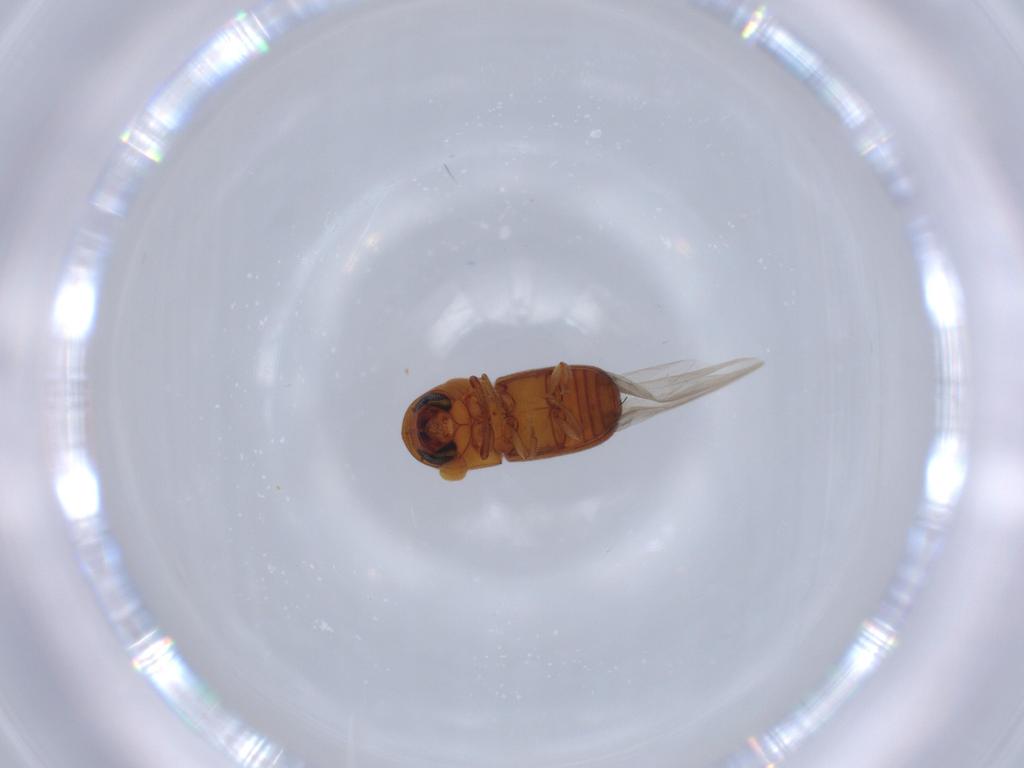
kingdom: Animalia
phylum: Arthropoda
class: Insecta
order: Coleoptera
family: Curculionidae
